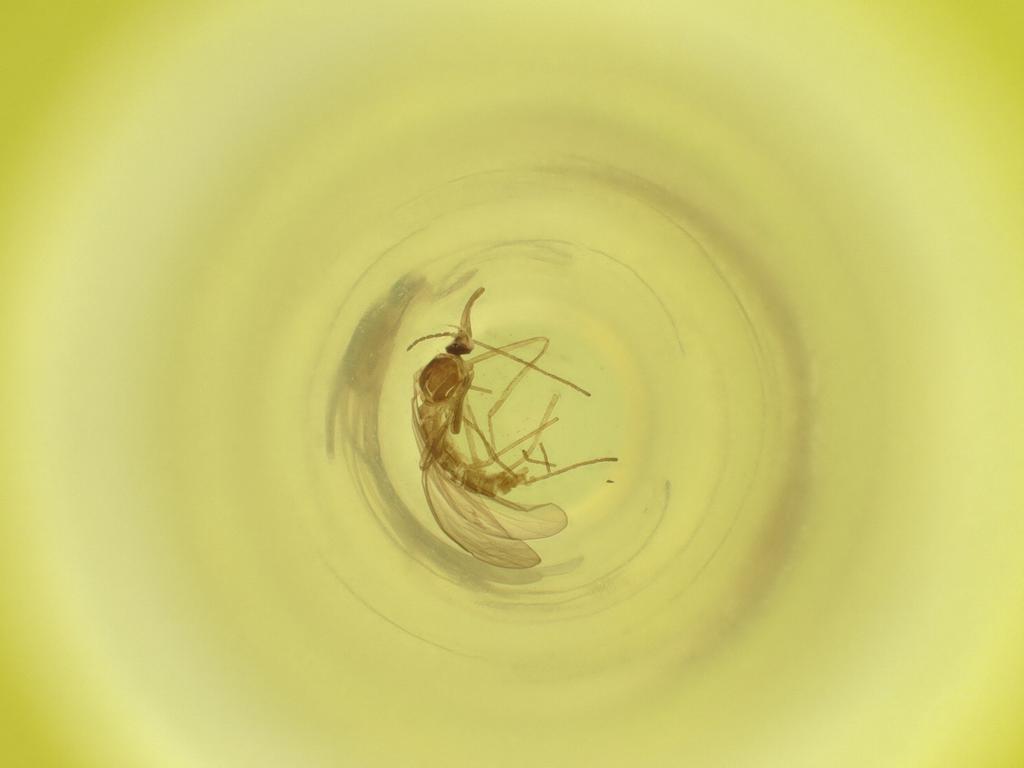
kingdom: Animalia
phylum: Arthropoda
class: Insecta
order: Diptera
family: Cecidomyiidae
